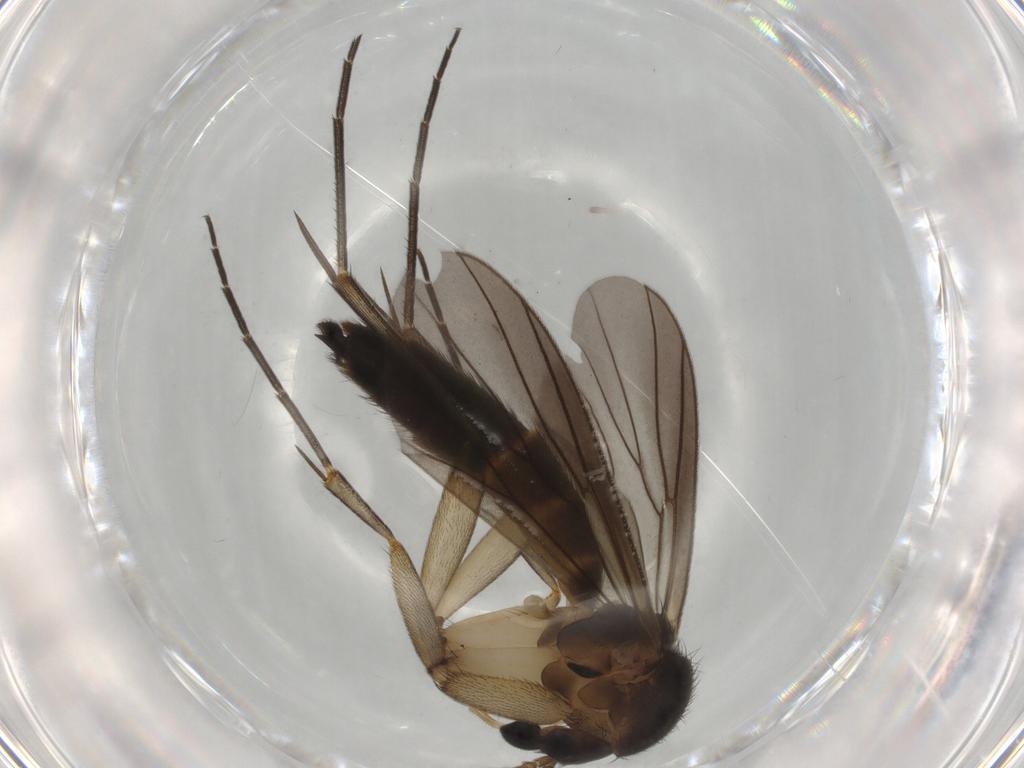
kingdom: Animalia
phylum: Arthropoda
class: Insecta
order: Diptera
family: Mycetophilidae
